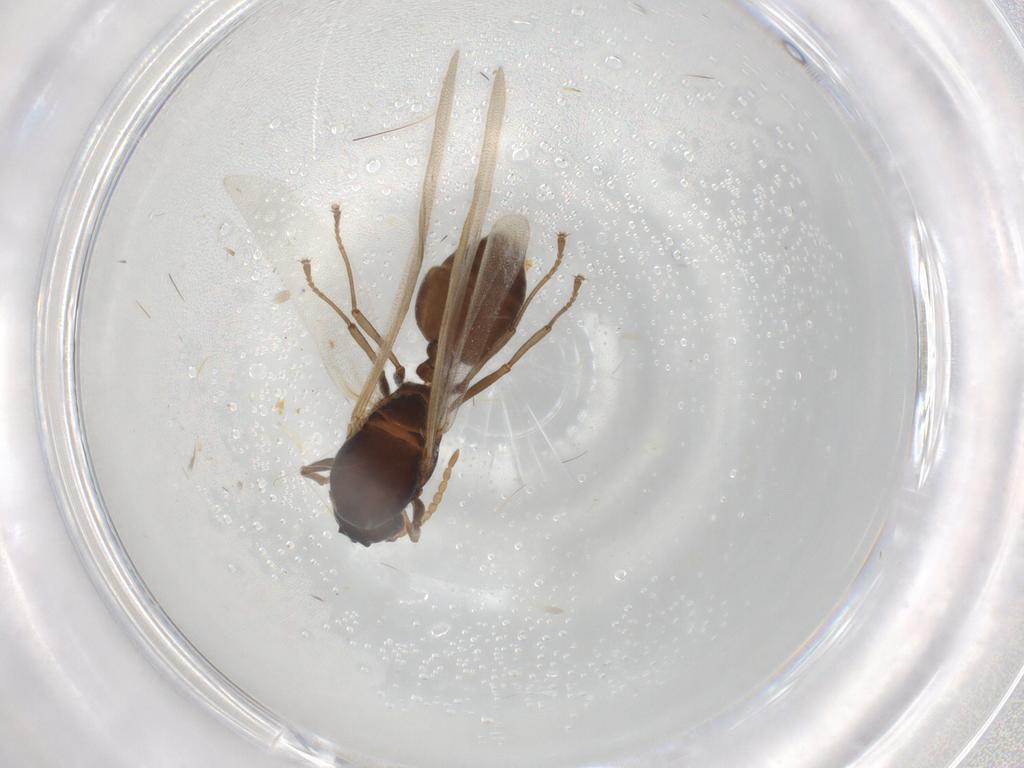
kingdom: Animalia
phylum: Arthropoda
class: Insecta
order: Hymenoptera
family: Formicidae
